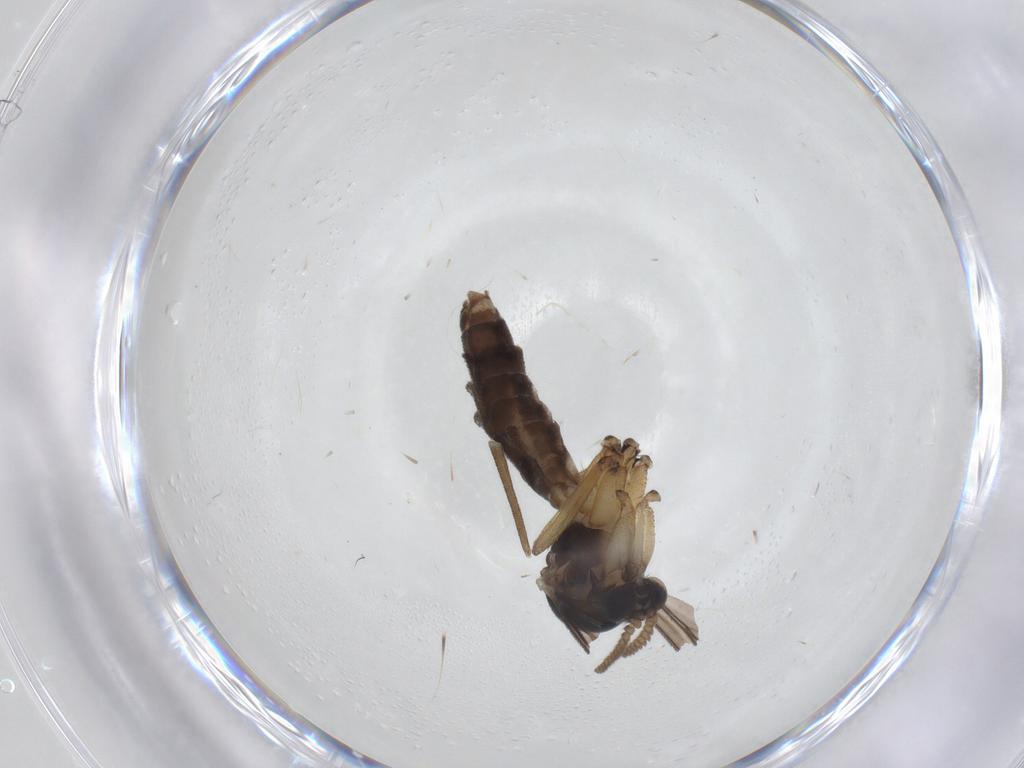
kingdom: Animalia
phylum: Arthropoda
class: Insecta
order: Diptera
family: Mycetophilidae
